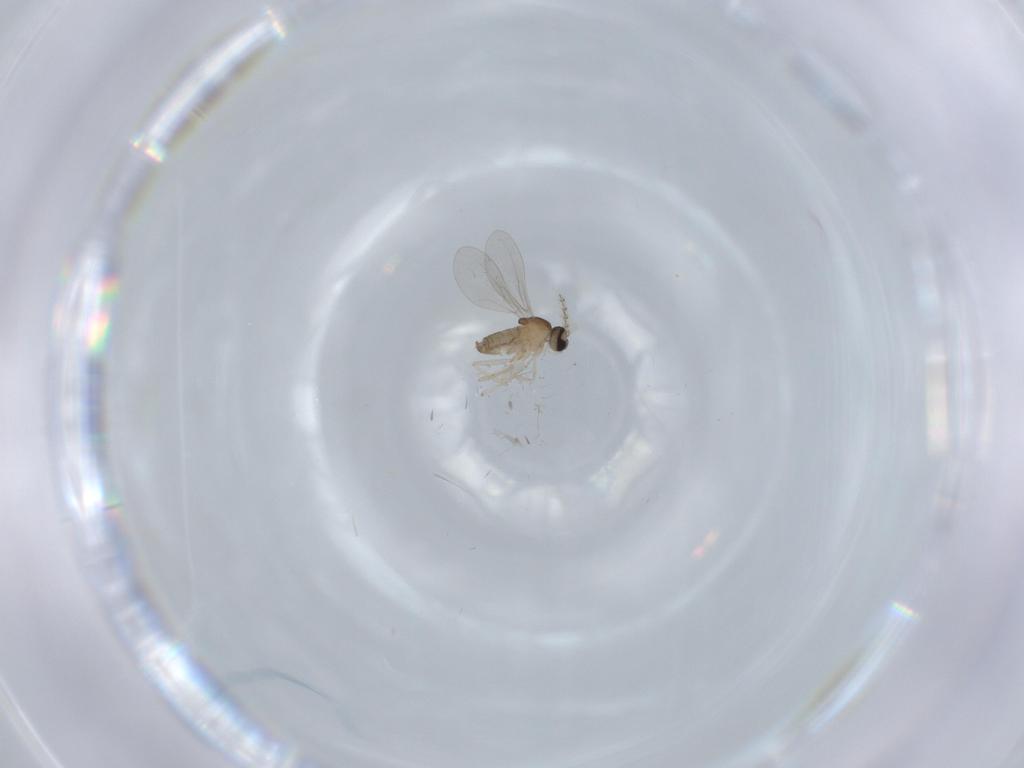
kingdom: Animalia
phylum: Arthropoda
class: Insecta
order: Diptera
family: Cecidomyiidae
